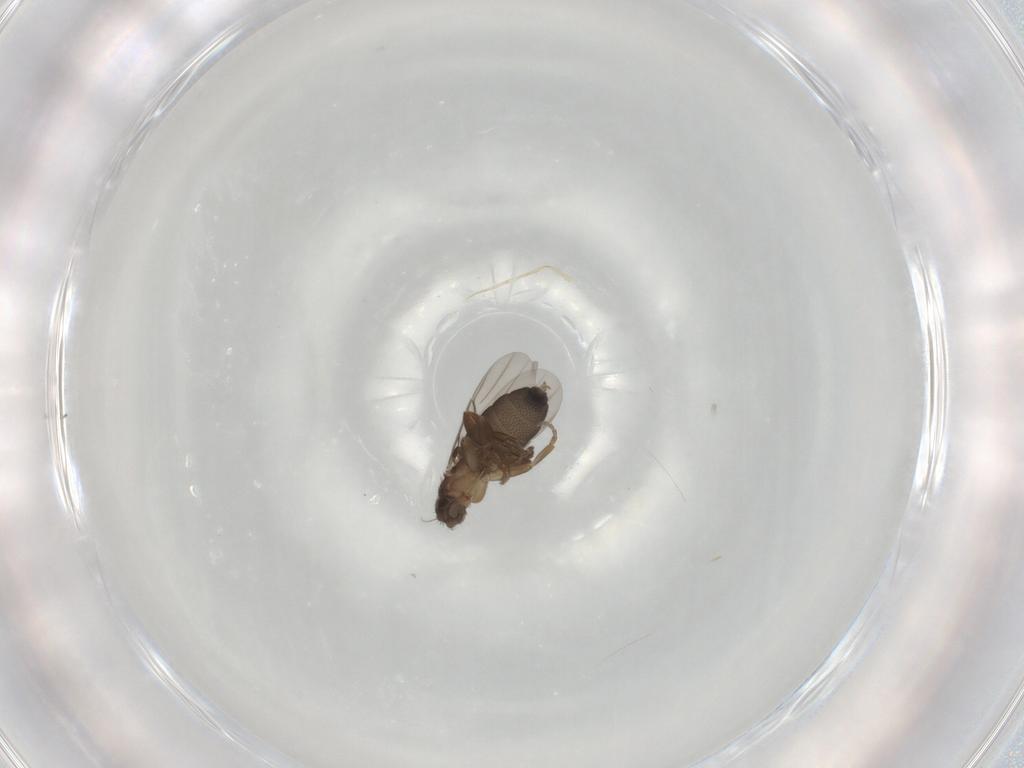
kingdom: Animalia
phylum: Arthropoda
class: Insecta
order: Diptera
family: Phoridae
